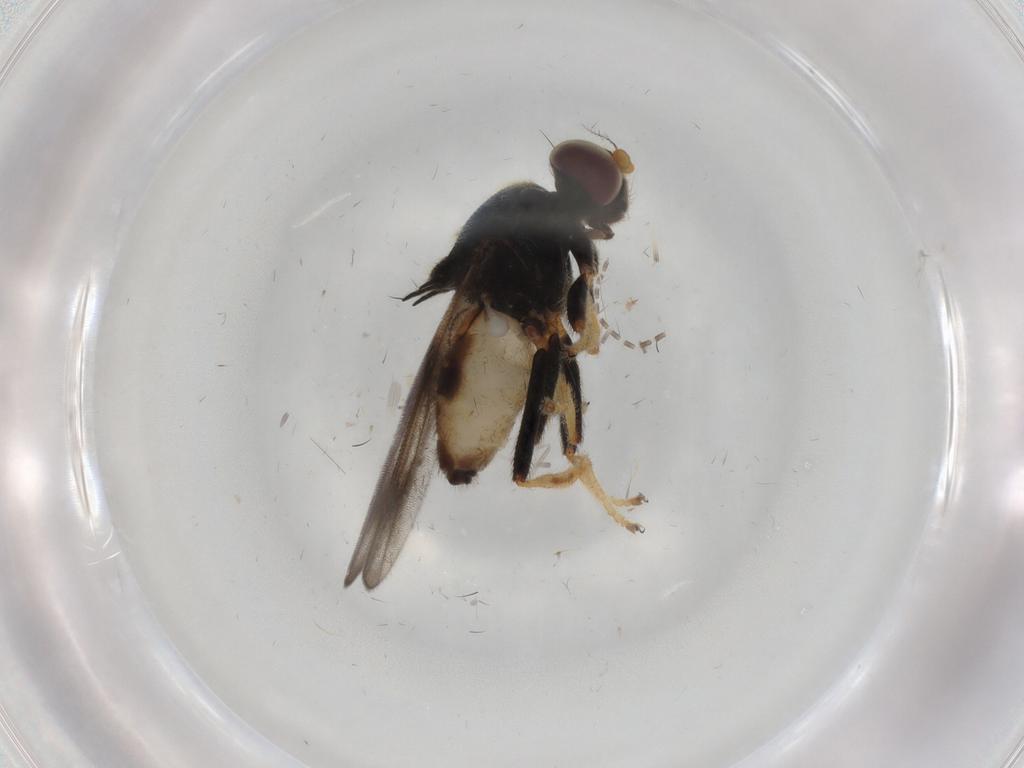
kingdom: Animalia
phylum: Arthropoda
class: Insecta
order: Diptera
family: Chloropidae
